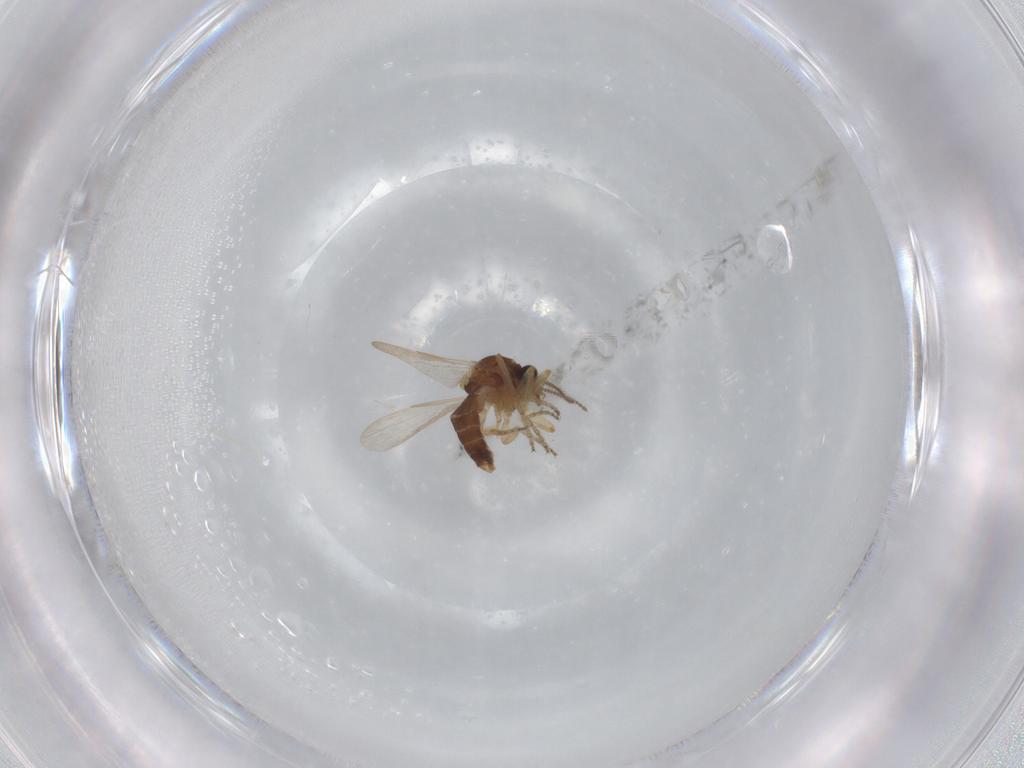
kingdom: Animalia
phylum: Arthropoda
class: Insecta
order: Diptera
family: Ceratopogonidae
